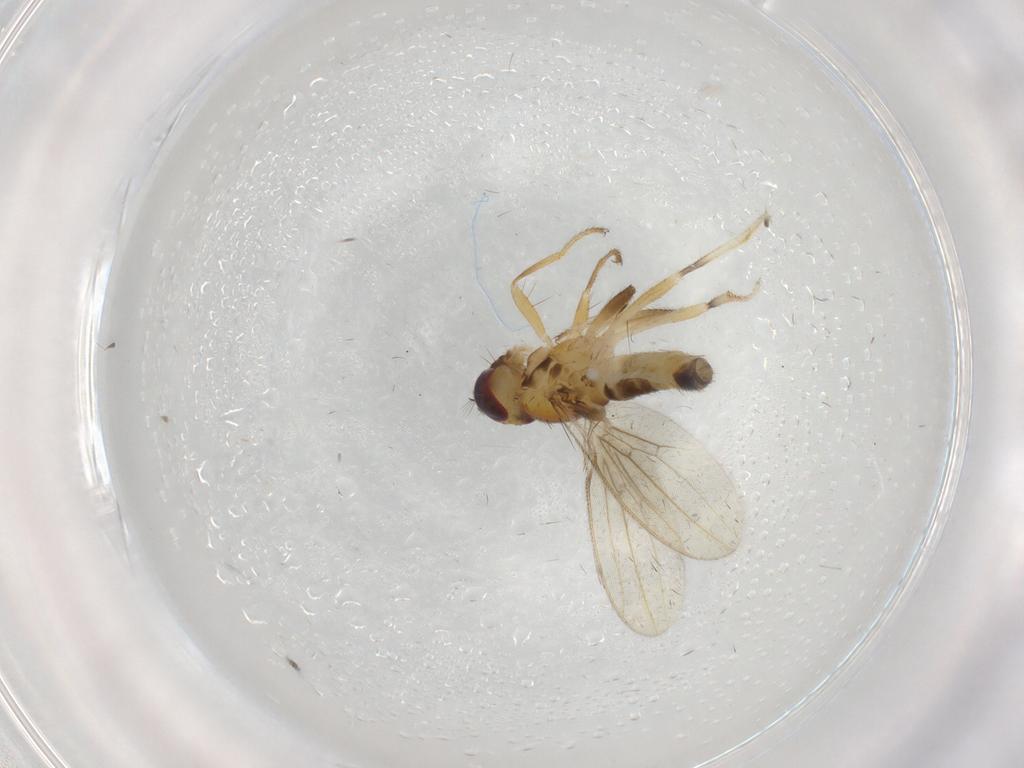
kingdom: Animalia
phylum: Arthropoda
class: Insecta
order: Diptera
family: Periscelididae
